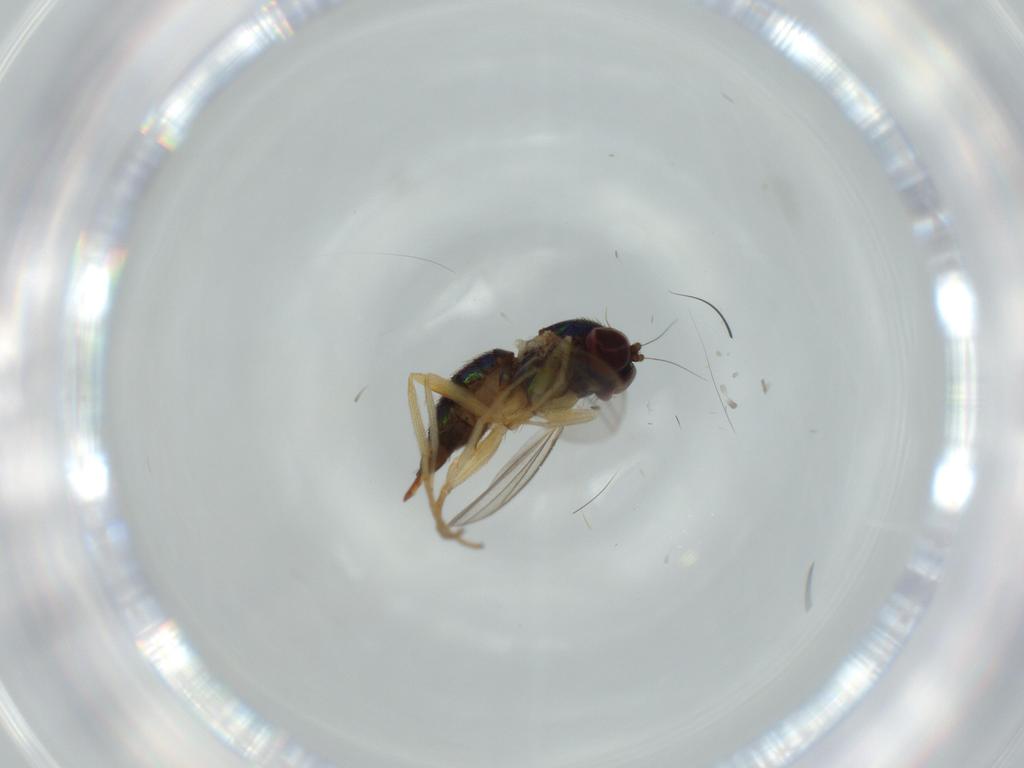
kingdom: Animalia
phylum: Arthropoda
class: Insecta
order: Diptera
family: Dolichopodidae
